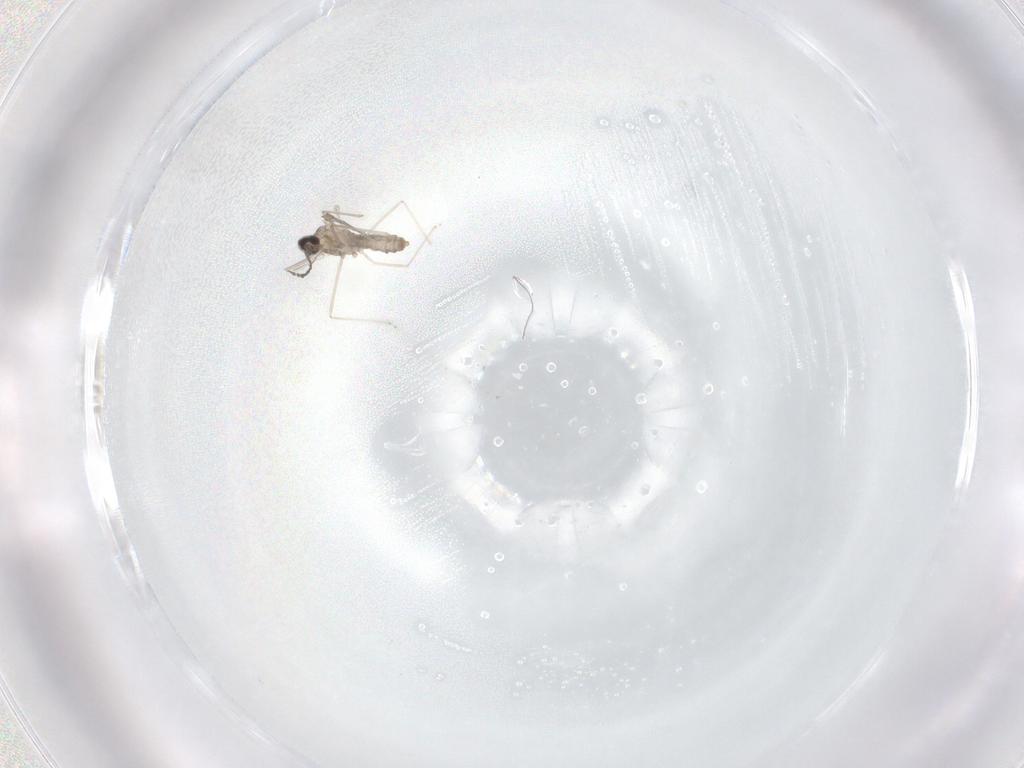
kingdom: Animalia
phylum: Arthropoda
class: Insecta
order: Diptera
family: Cecidomyiidae
